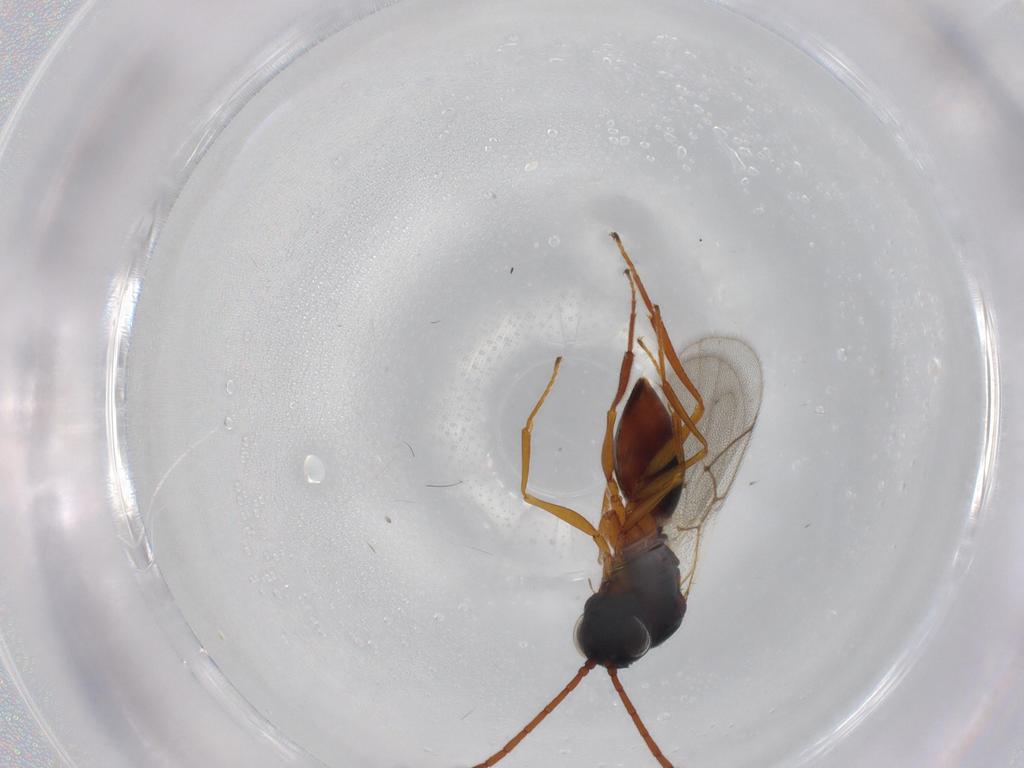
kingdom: Animalia
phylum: Arthropoda
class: Insecta
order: Hymenoptera
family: Figitidae
